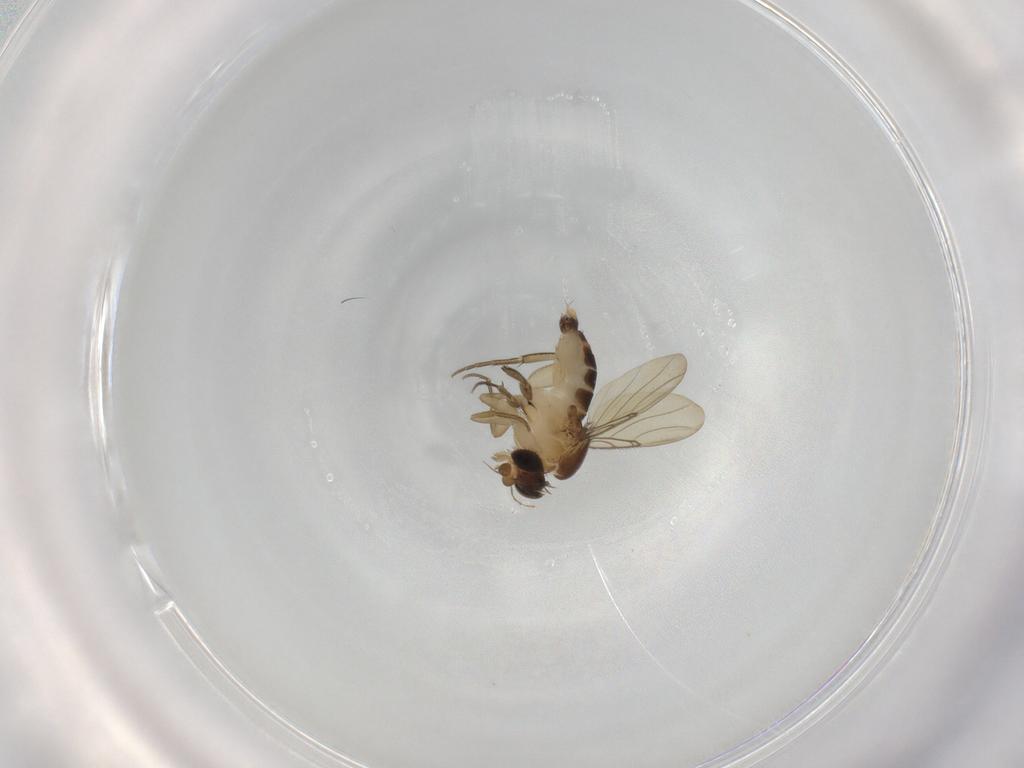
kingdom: Animalia
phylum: Arthropoda
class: Insecta
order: Diptera
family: Phoridae
